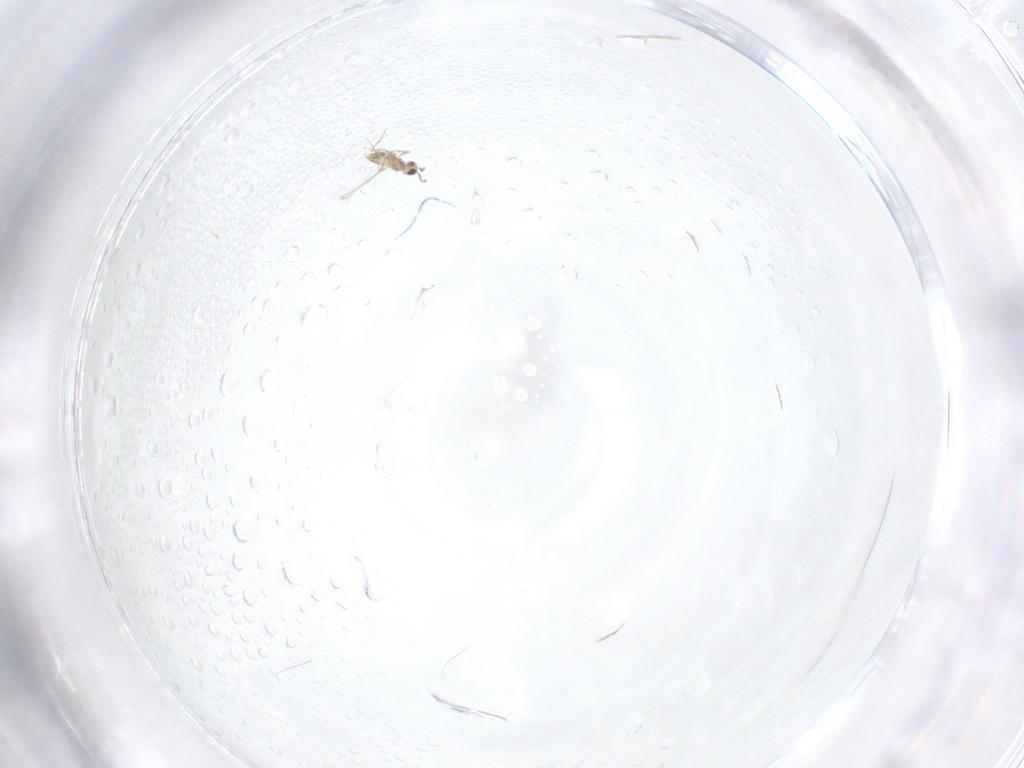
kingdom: Animalia
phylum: Arthropoda
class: Insecta
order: Hymenoptera
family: Mymaridae
